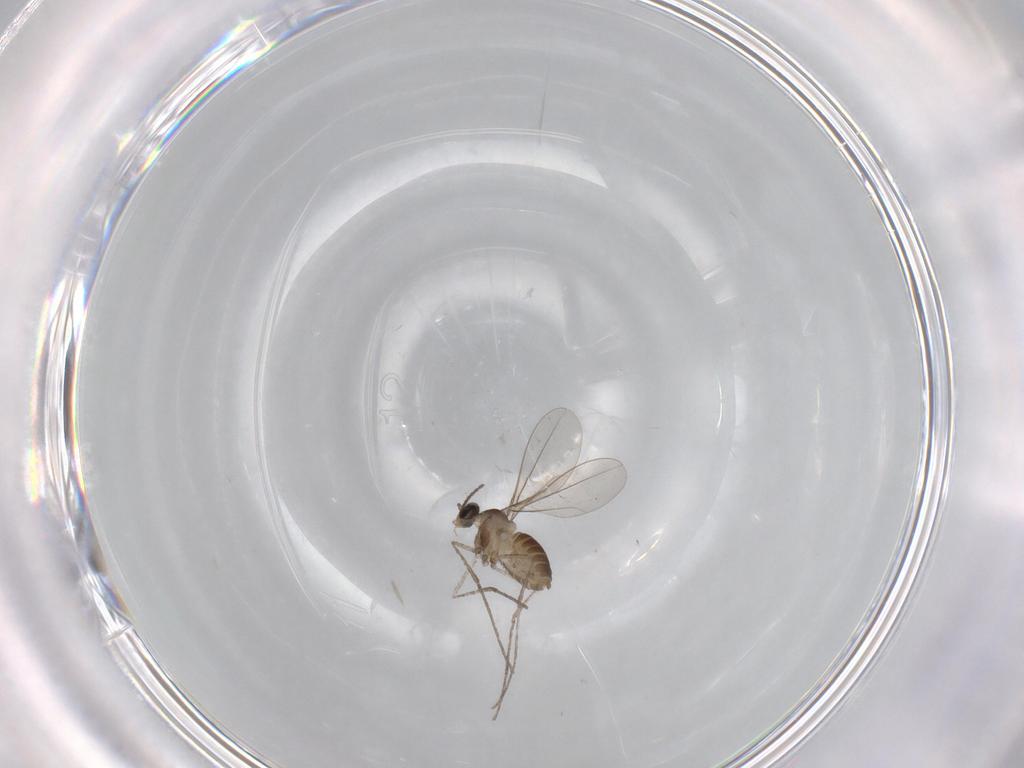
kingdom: Animalia
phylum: Arthropoda
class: Insecta
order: Diptera
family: Cecidomyiidae
